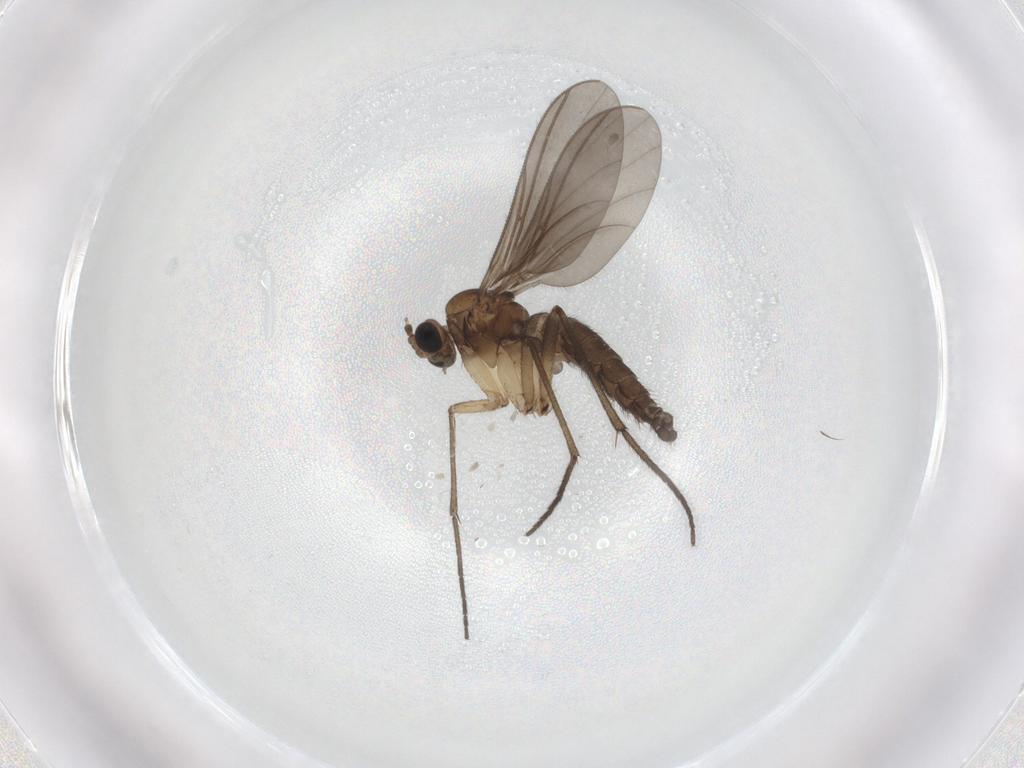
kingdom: Animalia
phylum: Arthropoda
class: Insecta
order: Diptera
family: Sciaridae
